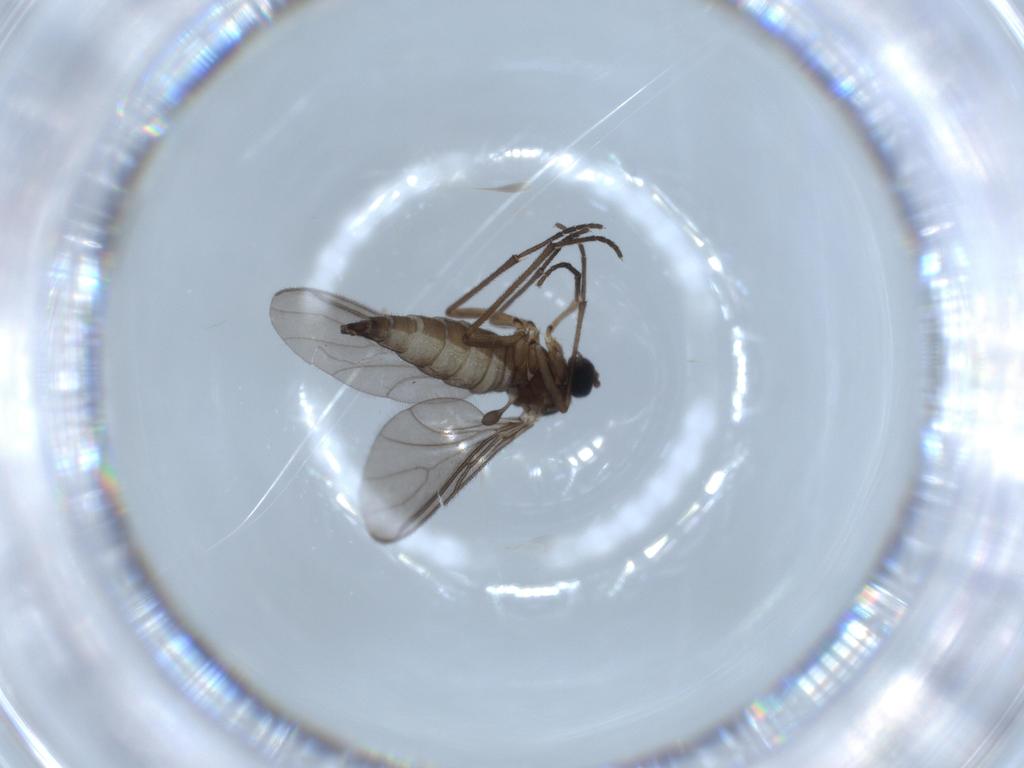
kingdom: Animalia
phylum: Arthropoda
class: Insecta
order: Diptera
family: Sciaridae
